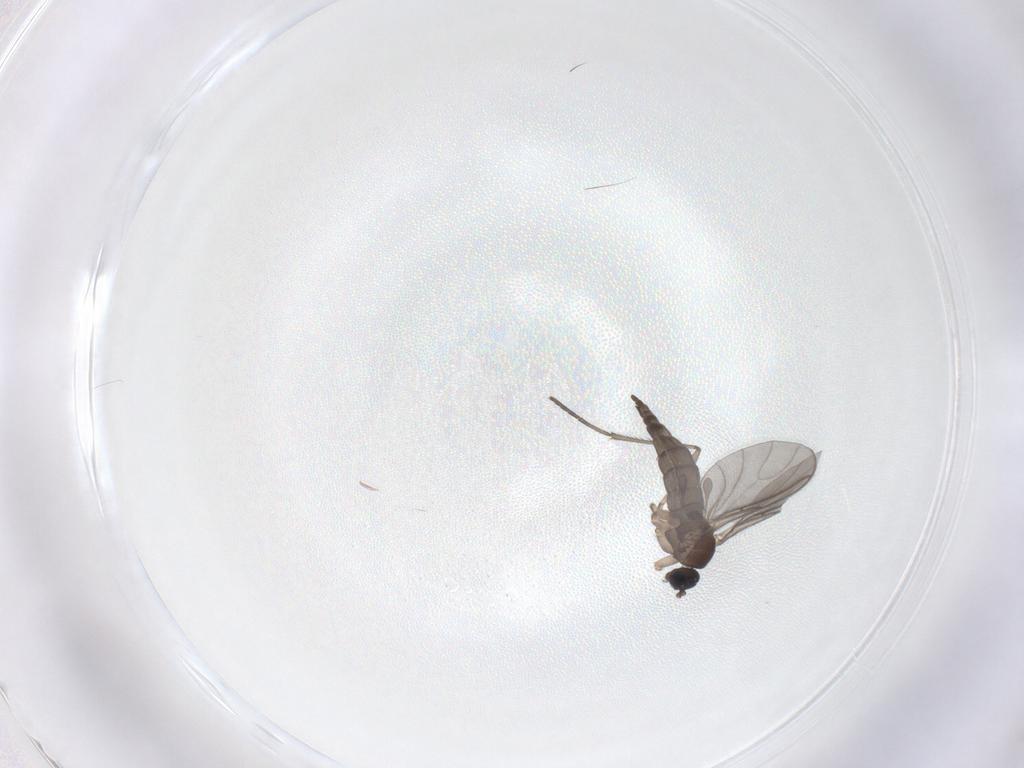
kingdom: Animalia
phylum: Arthropoda
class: Insecta
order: Diptera
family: Sciaridae
